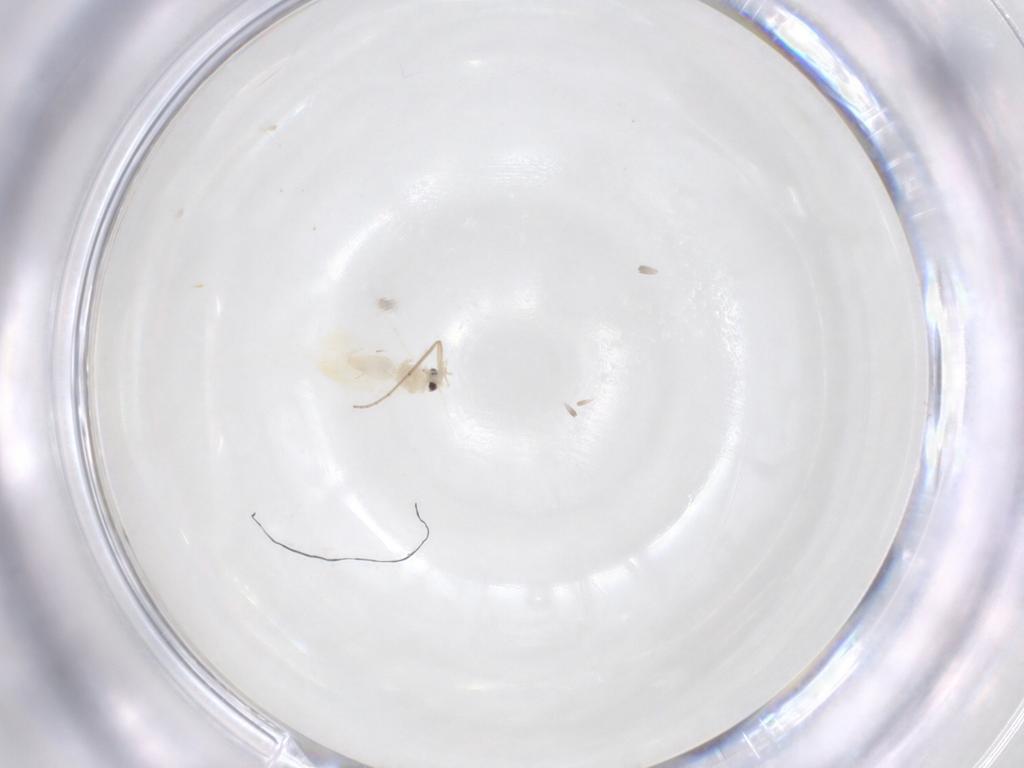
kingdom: Animalia
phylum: Arthropoda
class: Insecta
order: Hemiptera
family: Aleyrodidae
